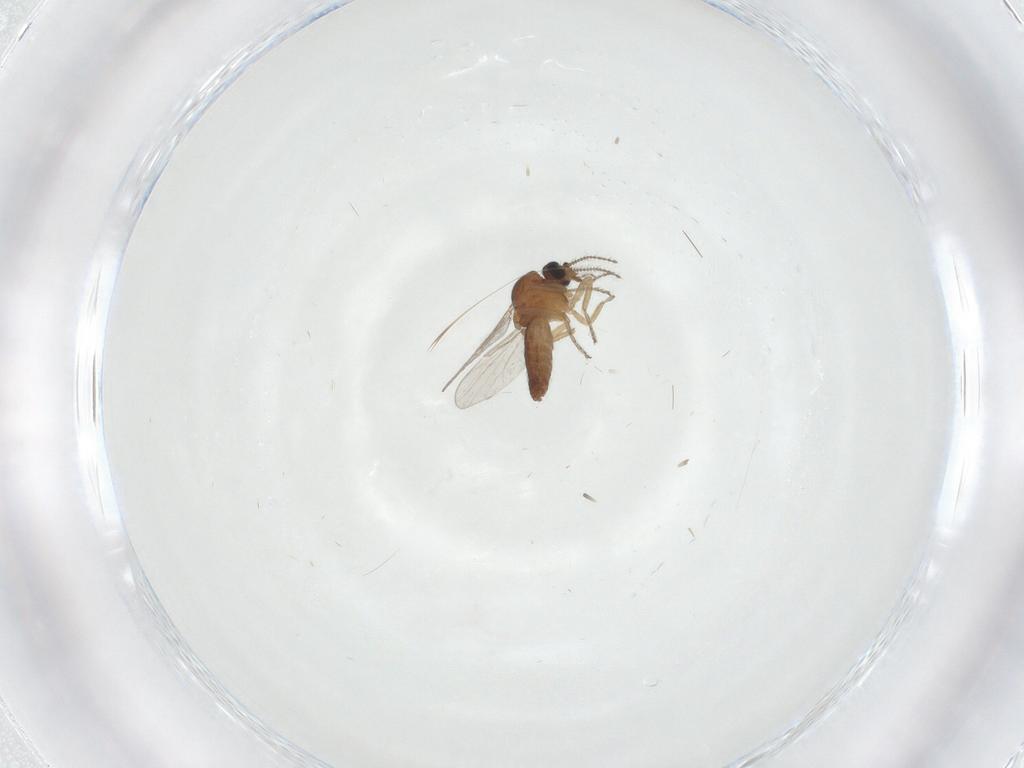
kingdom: Animalia
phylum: Arthropoda
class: Insecta
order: Diptera
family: Ceratopogonidae
